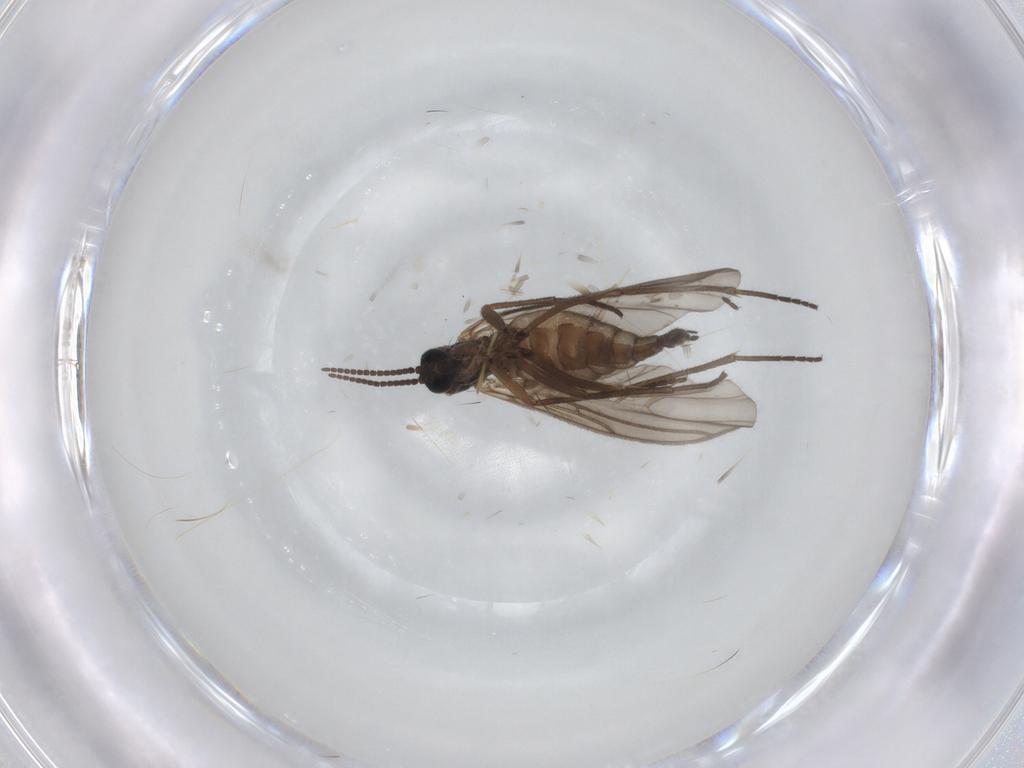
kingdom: Animalia
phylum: Arthropoda
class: Insecta
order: Diptera
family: Sciaridae
